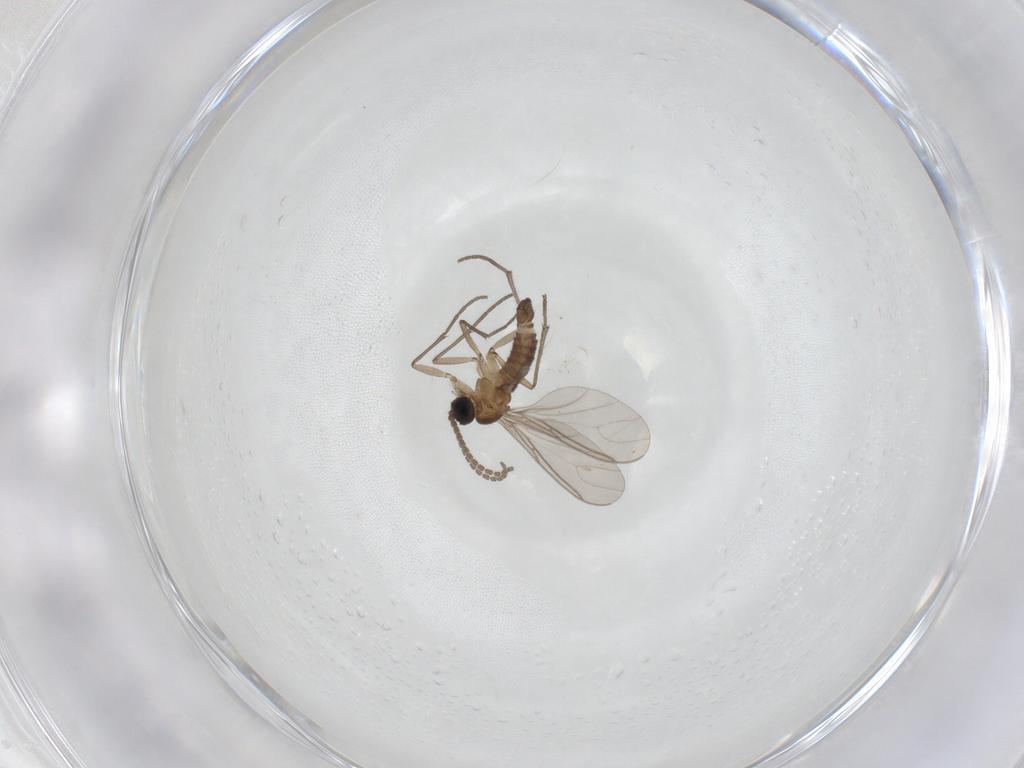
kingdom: Animalia
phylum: Arthropoda
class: Insecta
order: Diptera
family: Sciaridae
